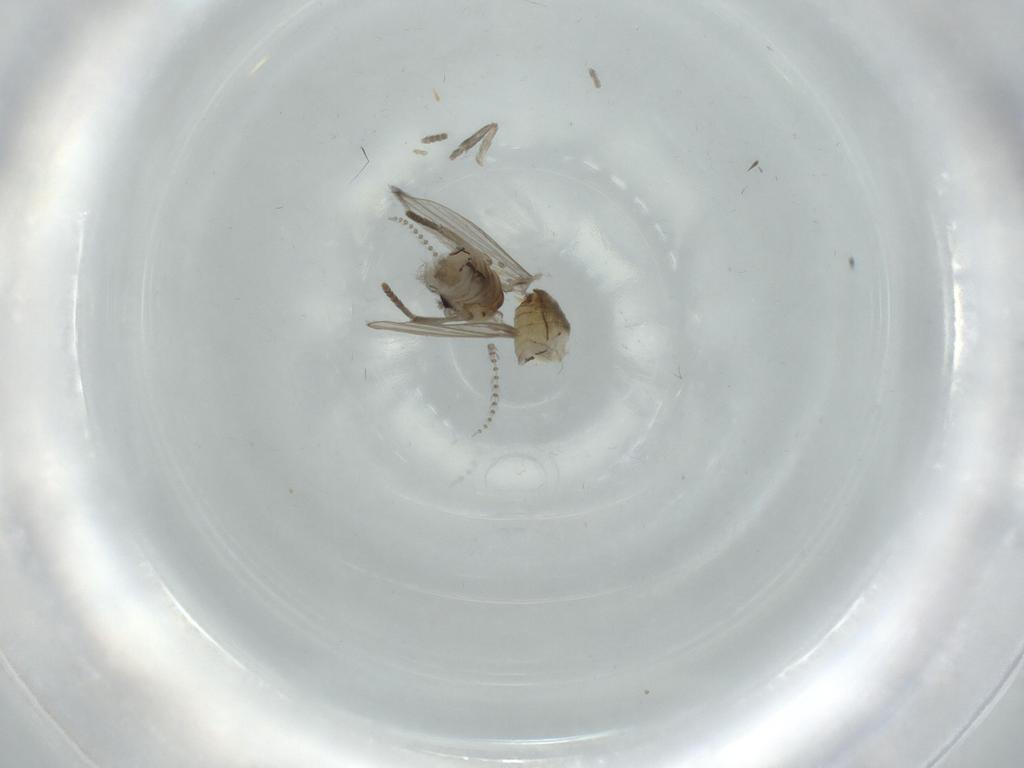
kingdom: Animalia
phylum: Arthropoda
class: Insecta
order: Diptera
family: Psychodidae
